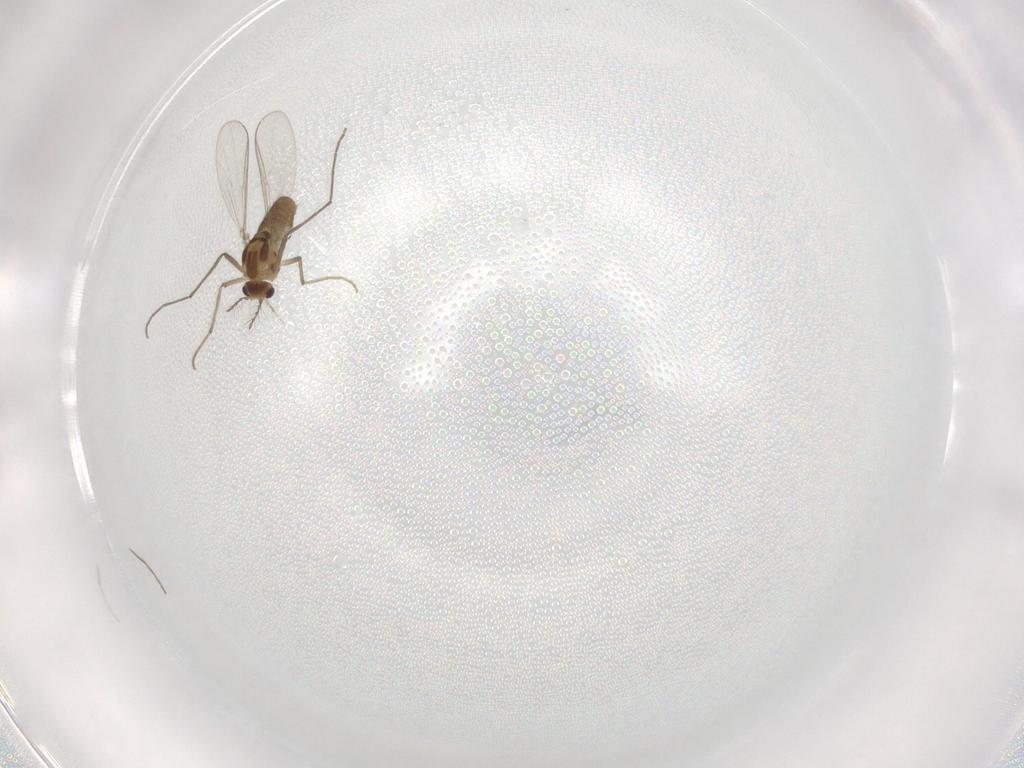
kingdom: Animalia
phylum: Arthropoda
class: Insecta
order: Diptera
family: Chironomidae
